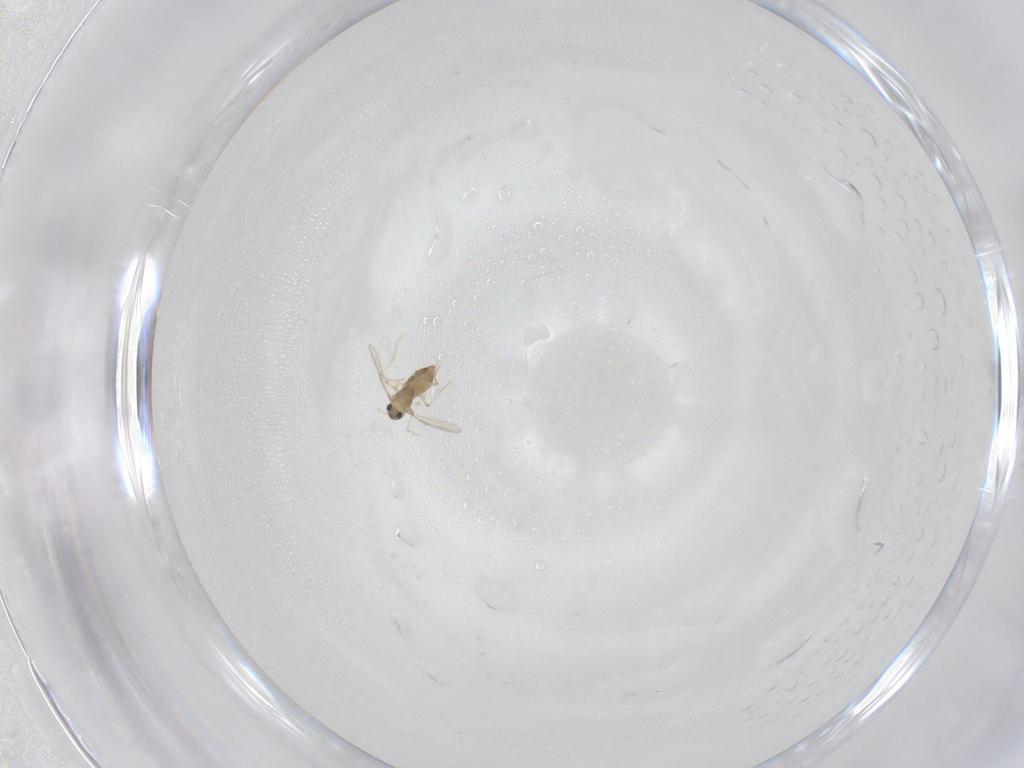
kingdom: Animalia
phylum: Arthropoda
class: Insecta
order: Diptera
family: Chironomidae
